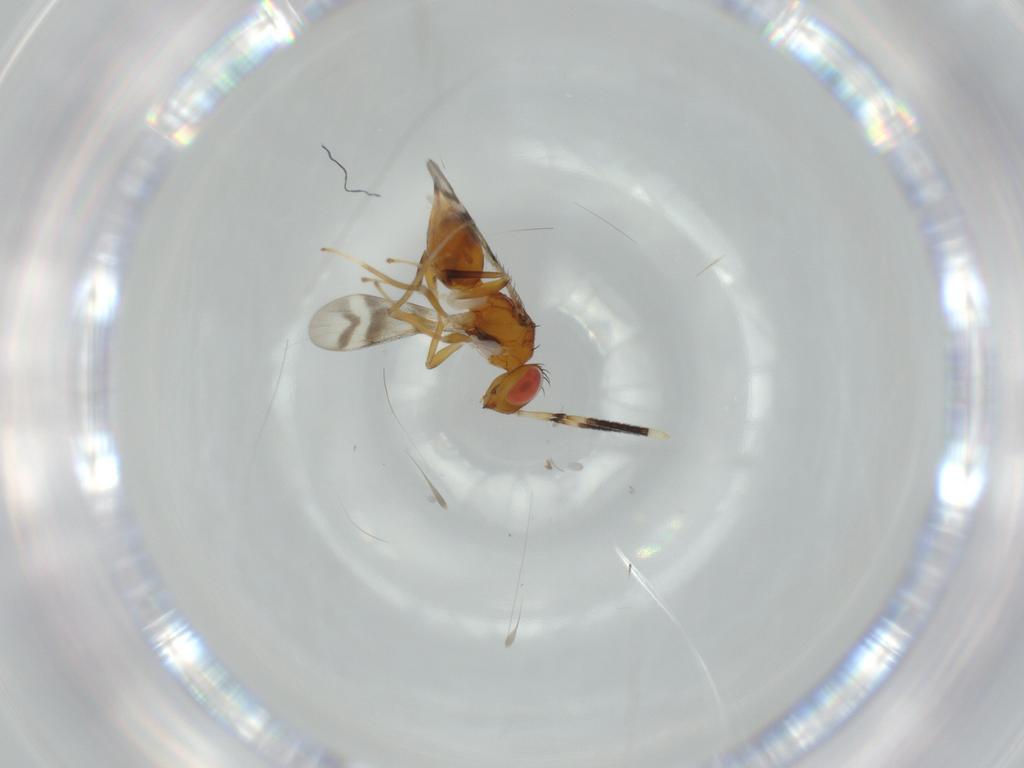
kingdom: Animalia
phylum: Arthropoda
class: Insecta
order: Hymenoptera
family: Diparidae
